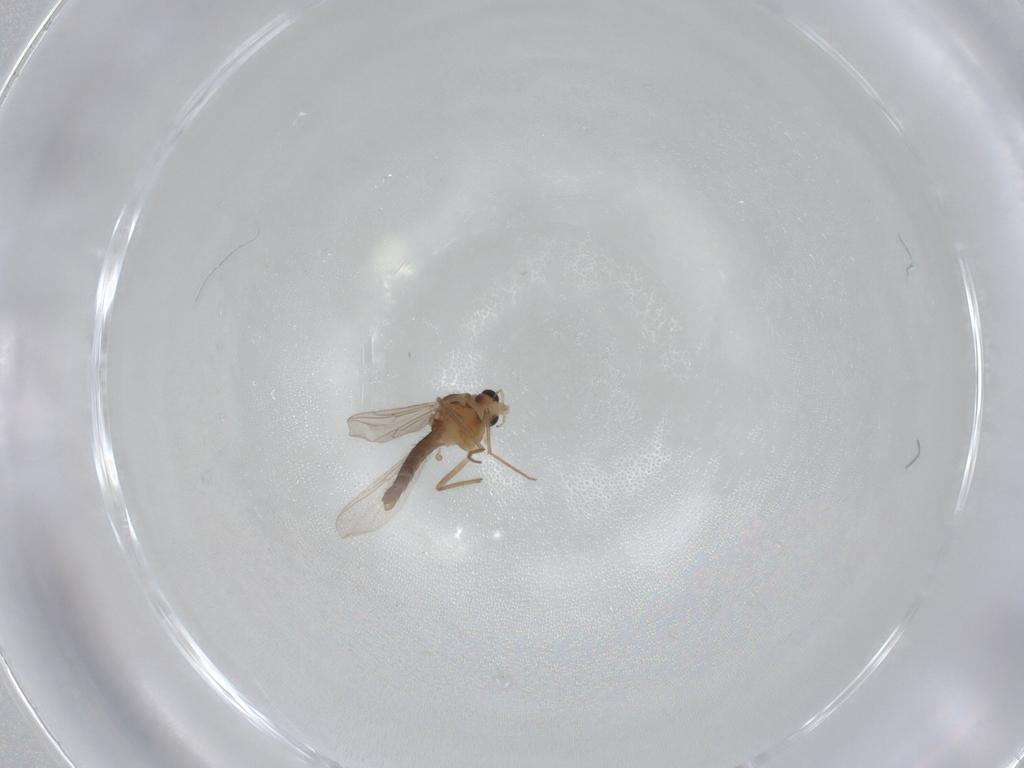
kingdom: Animalia
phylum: Arthropoda
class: Insecta
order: Diptera
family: Chironomidae
